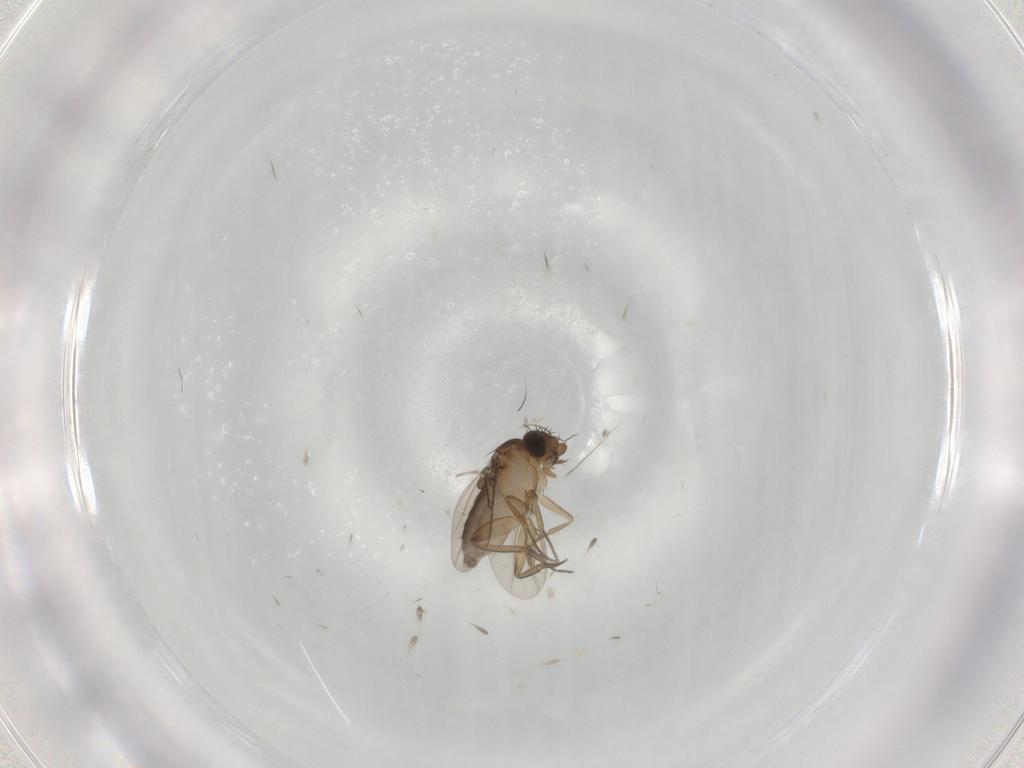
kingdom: Animalia
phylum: Arthropoda
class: Insecta
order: Diptera
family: Phoridae
